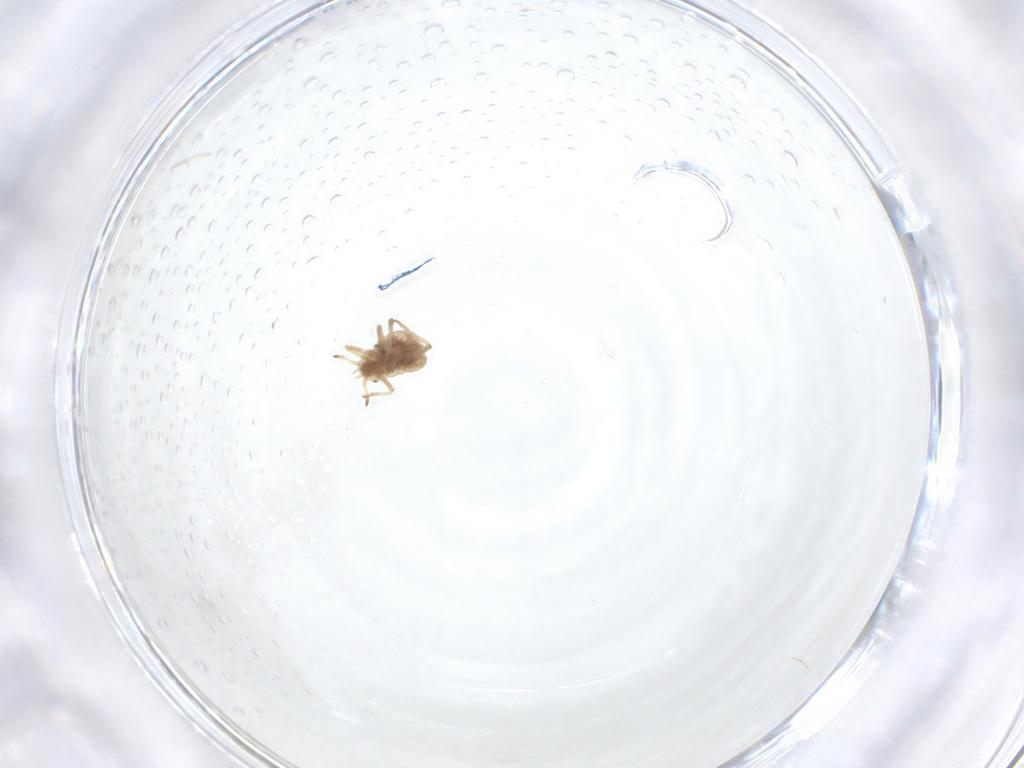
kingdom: Animalia
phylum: Arthropoda
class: Insecta
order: Hemiptera
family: Aphididae
